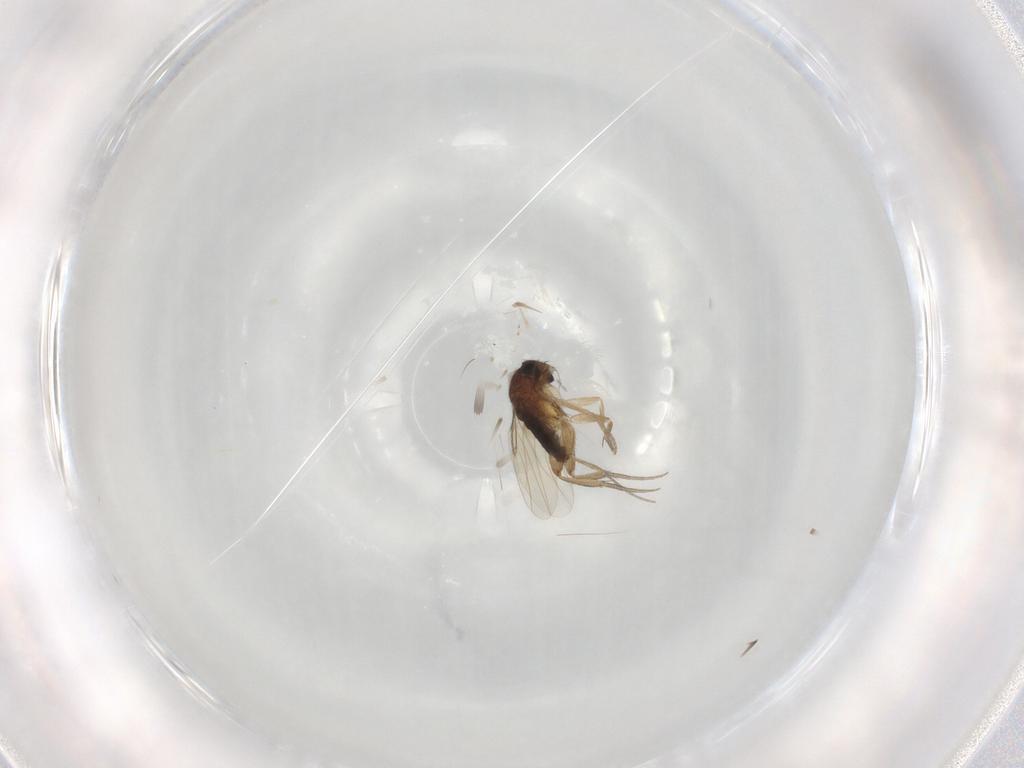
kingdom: Animalia
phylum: Arthropoda
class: Insecta
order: Diptera
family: Phoridae
